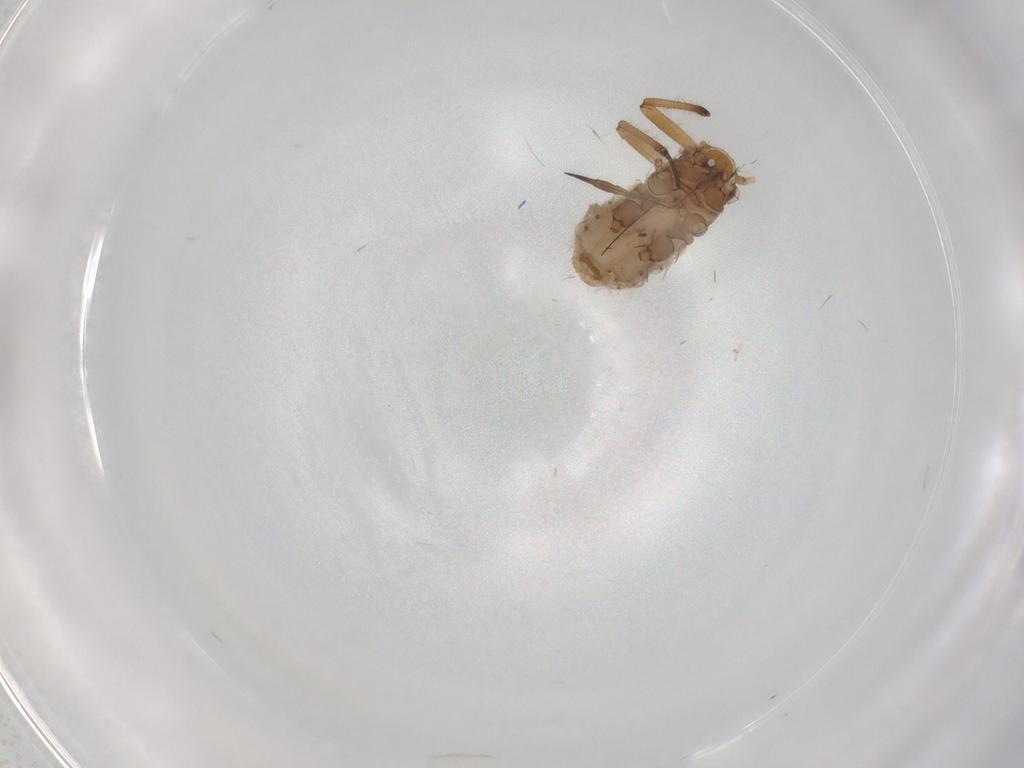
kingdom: Animalia
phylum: Arthropoda
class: Insecta
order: Hemiptera
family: Aphididae
